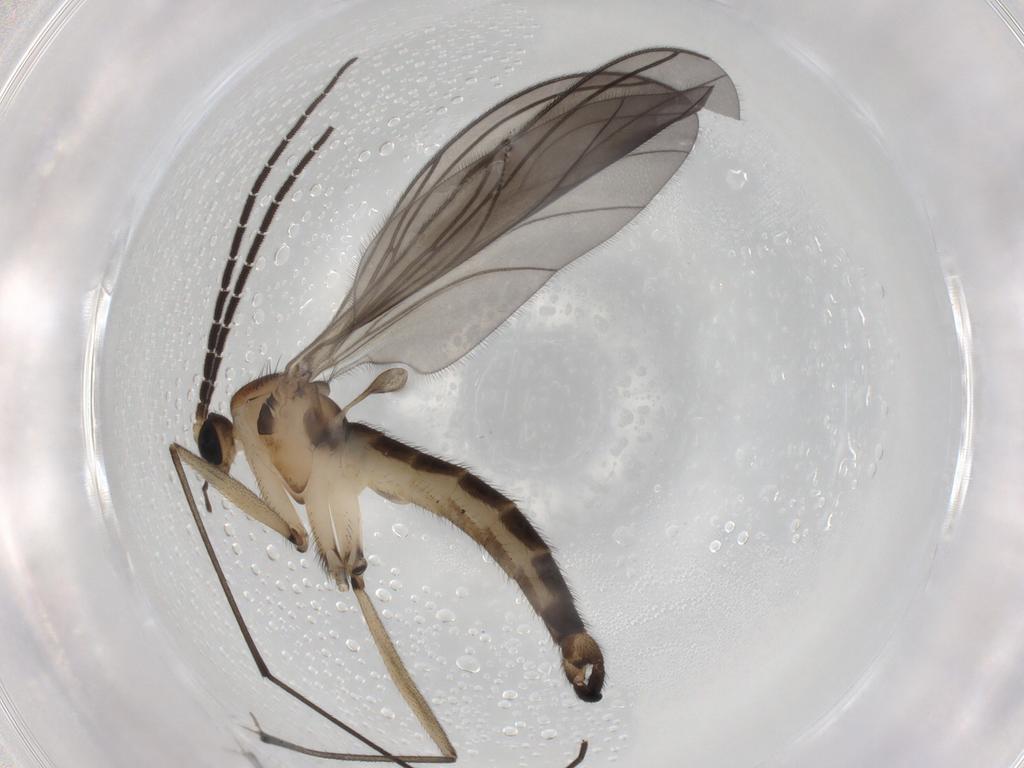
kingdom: Animalia
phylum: Arthropoda
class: Insecta
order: Diptera
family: Sciaridae
